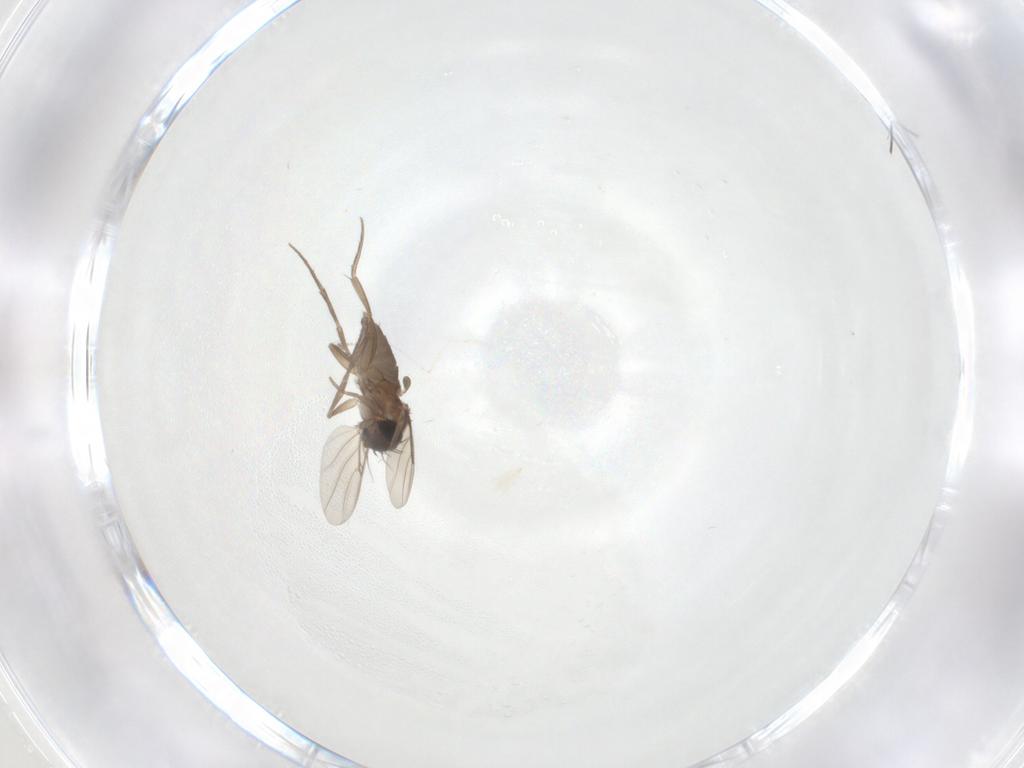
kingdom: Animalia
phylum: Arthropoda
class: Insecta
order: Diptera
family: Phoridae
